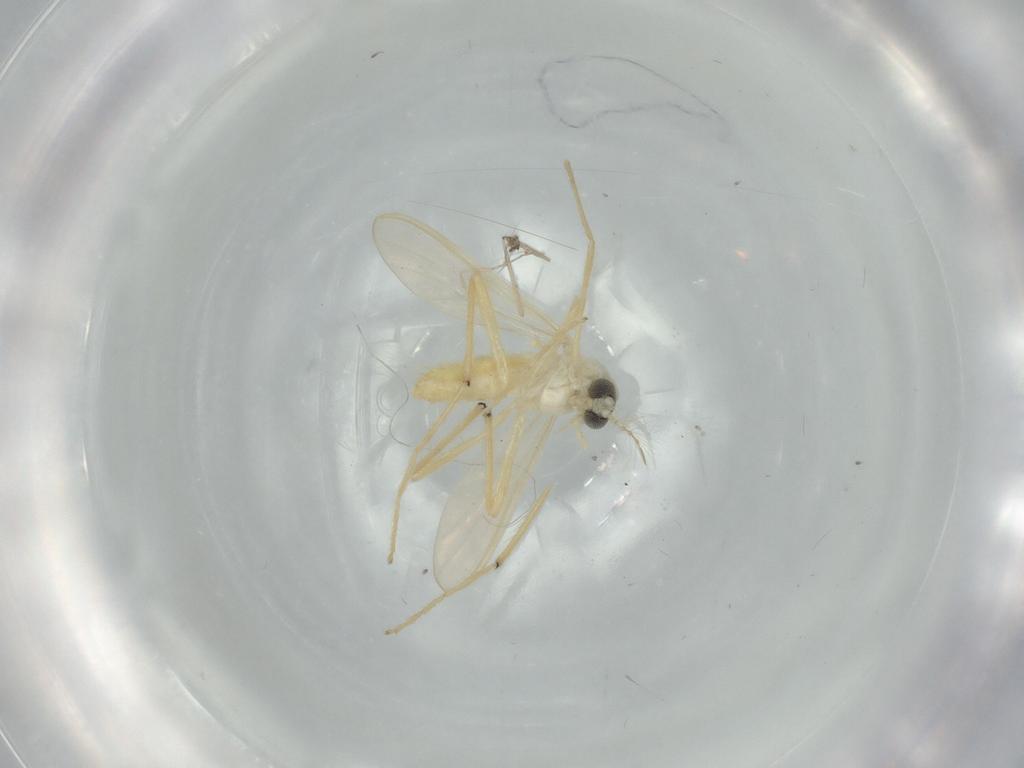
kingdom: Animalia
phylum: Arthropoda
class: Insecta
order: Diptera
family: Chironomidae
